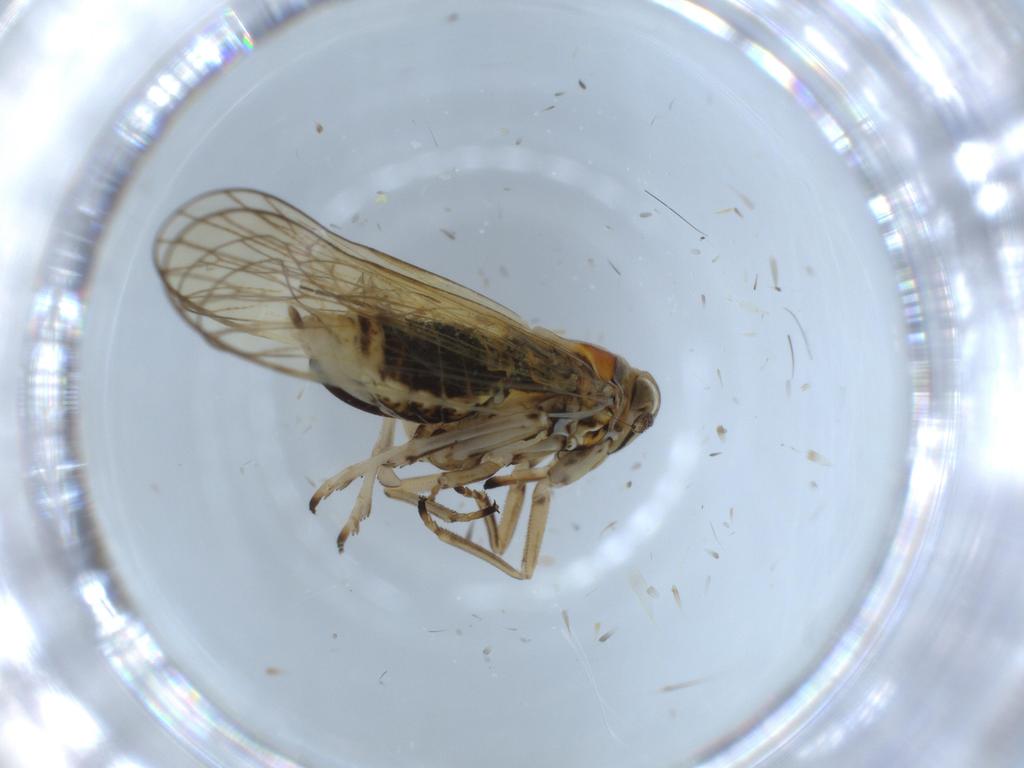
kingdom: Animalia
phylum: Arthropoda
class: Insecta
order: Hemiptera
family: Delphacidae
